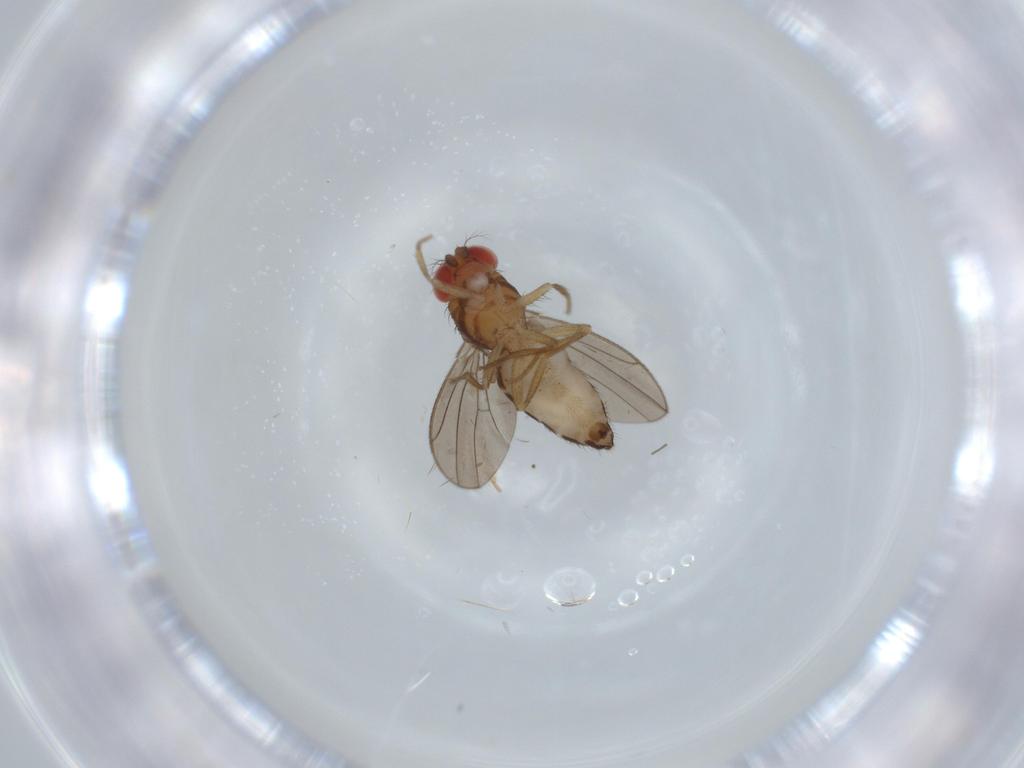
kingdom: Animalia
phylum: Arthropoda
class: Insecta
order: Diptera
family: Drosophilidae
